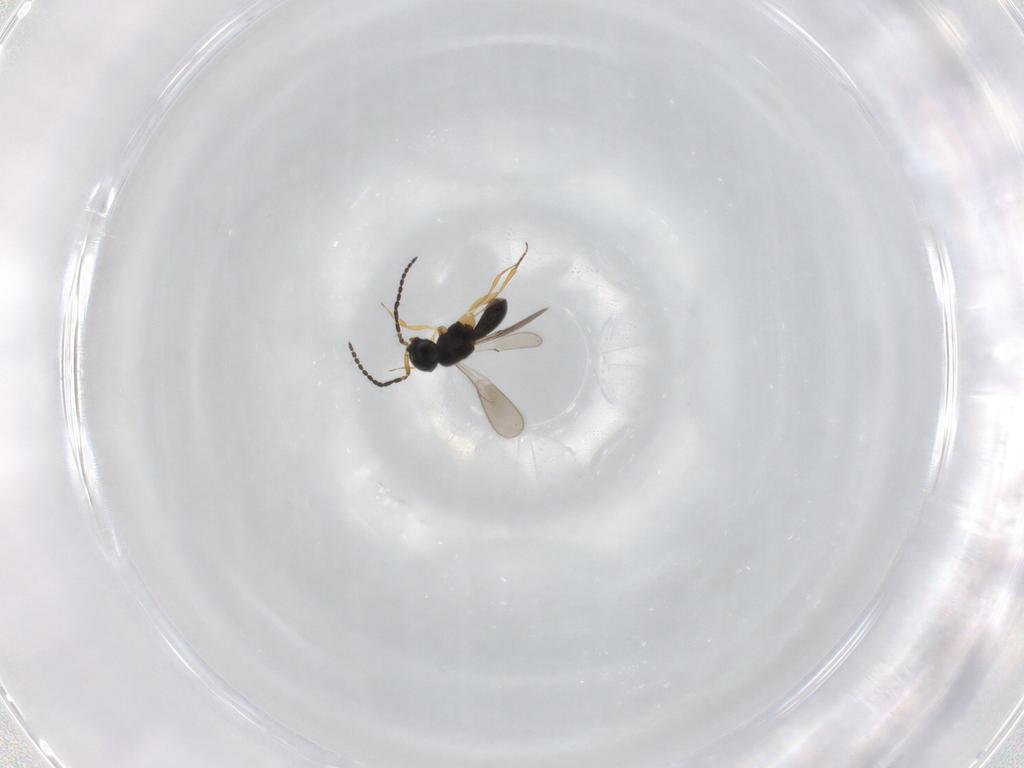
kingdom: Animalia
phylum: Arthropoda
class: Insecta
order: Hymenoptera
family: Scelionidae
